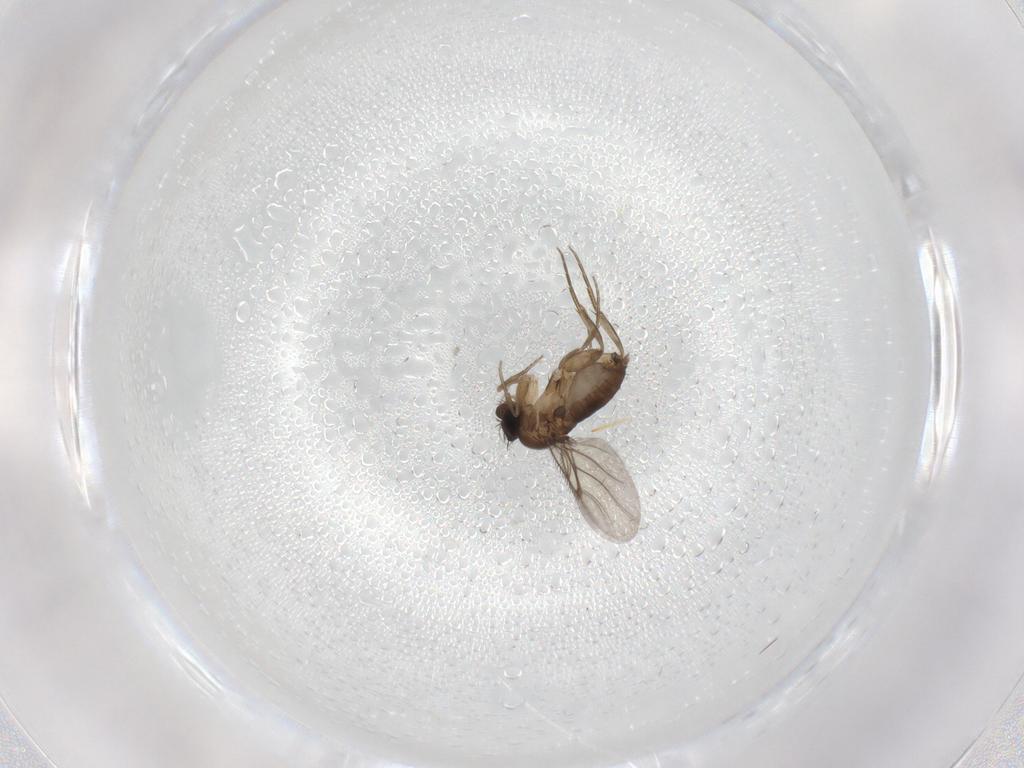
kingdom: Animalia
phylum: Arthropoda
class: Insecta
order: Diptera
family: Phoridae
